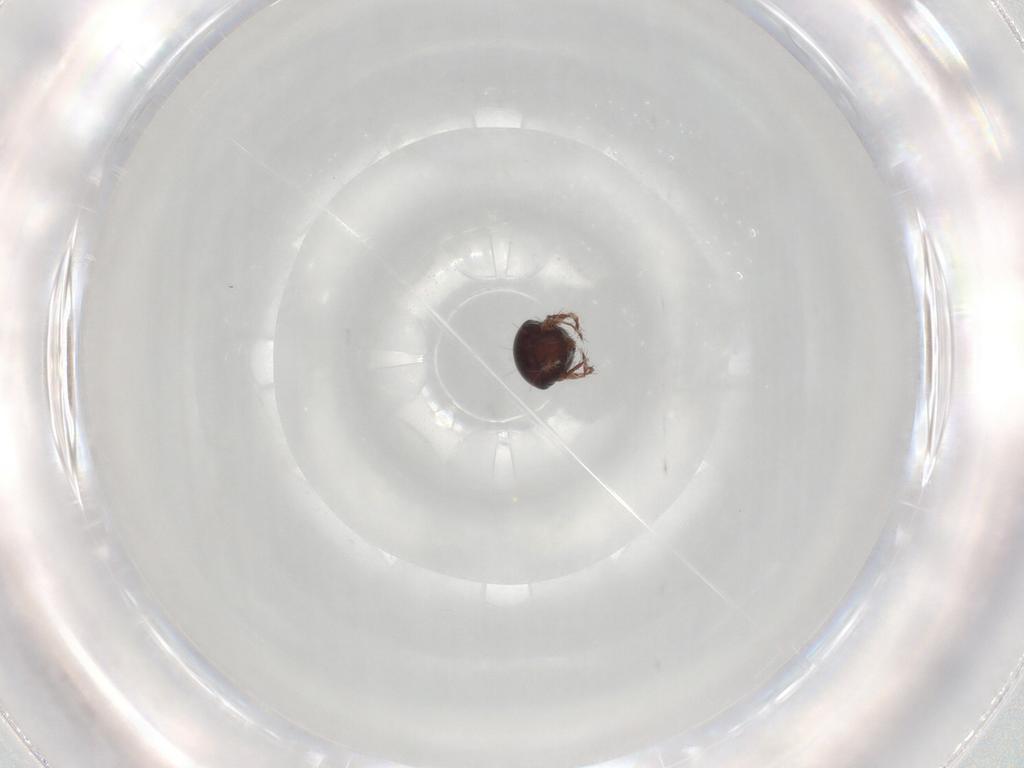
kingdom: Animalia
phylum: Arthropoda
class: Arachnida
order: Sarcoptiformes
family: Ceratoppiidae
